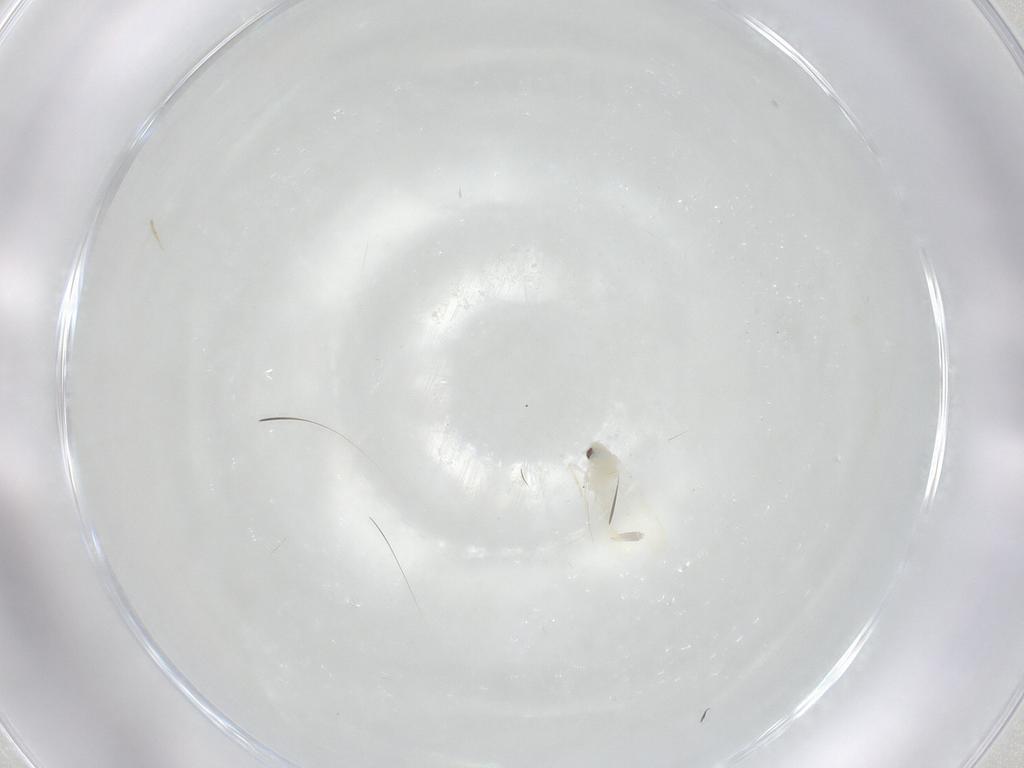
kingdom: Animalia
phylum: Arthropoda
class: Insecta
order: Hemiptera
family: Aleyrodidae
